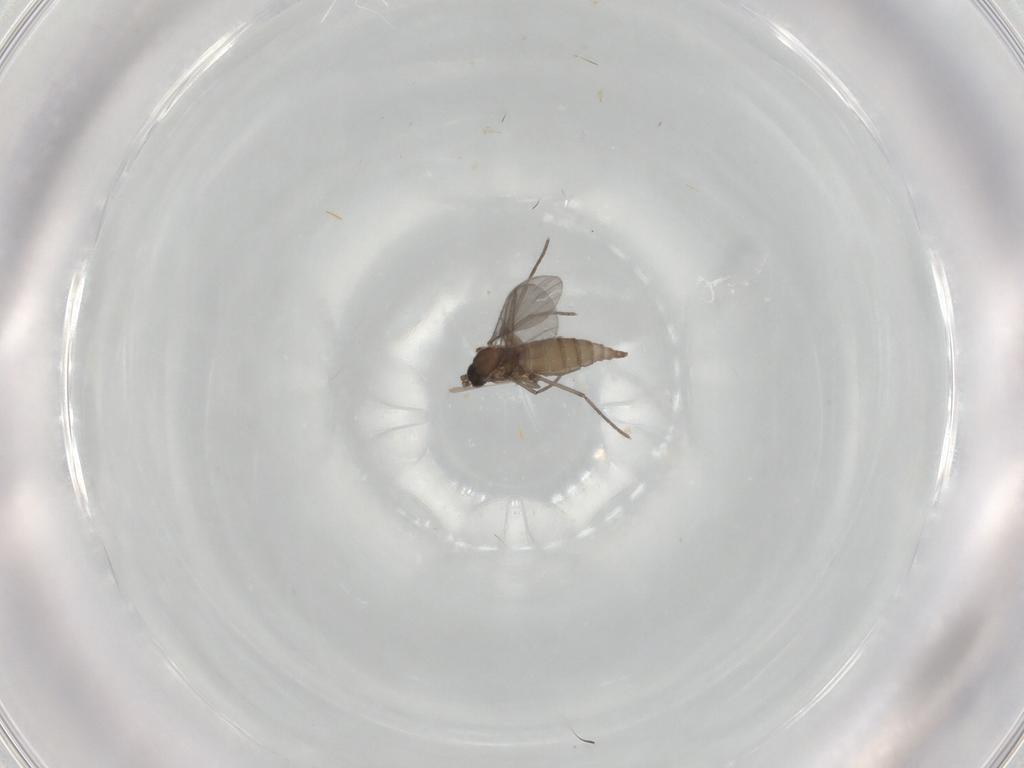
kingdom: Animalia
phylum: Arthropoda
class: Insecta
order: Diptera
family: Sciaridae
